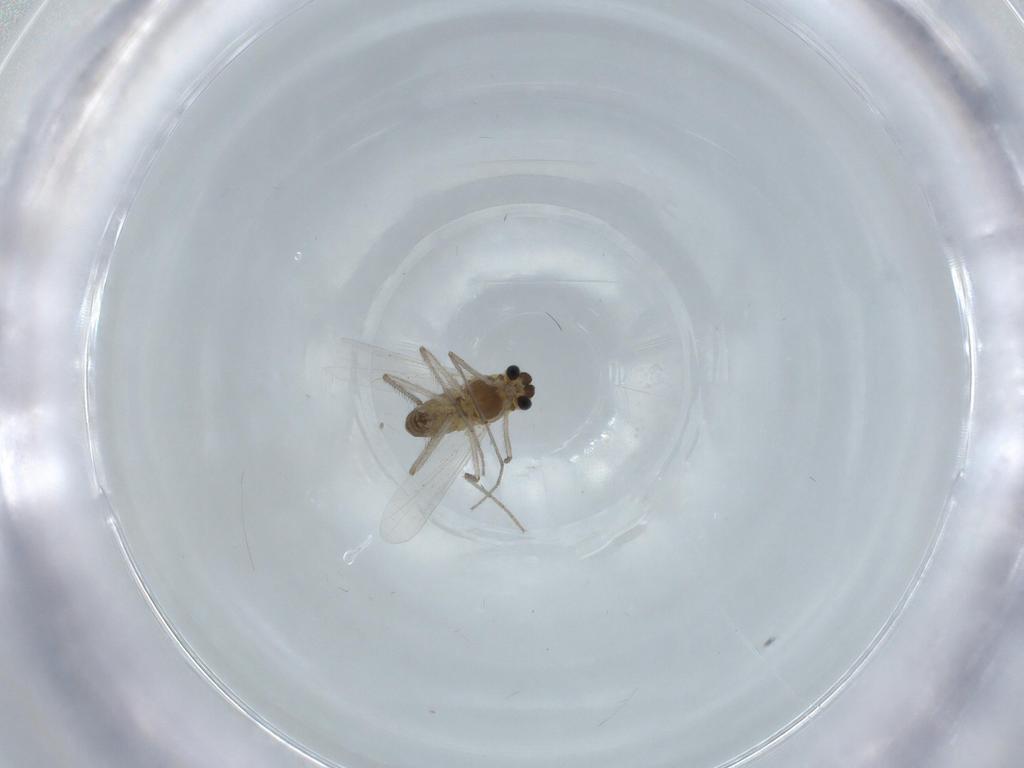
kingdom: Animalia
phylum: Arthropoda
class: Insecta
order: Diptera
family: Chironomidae
